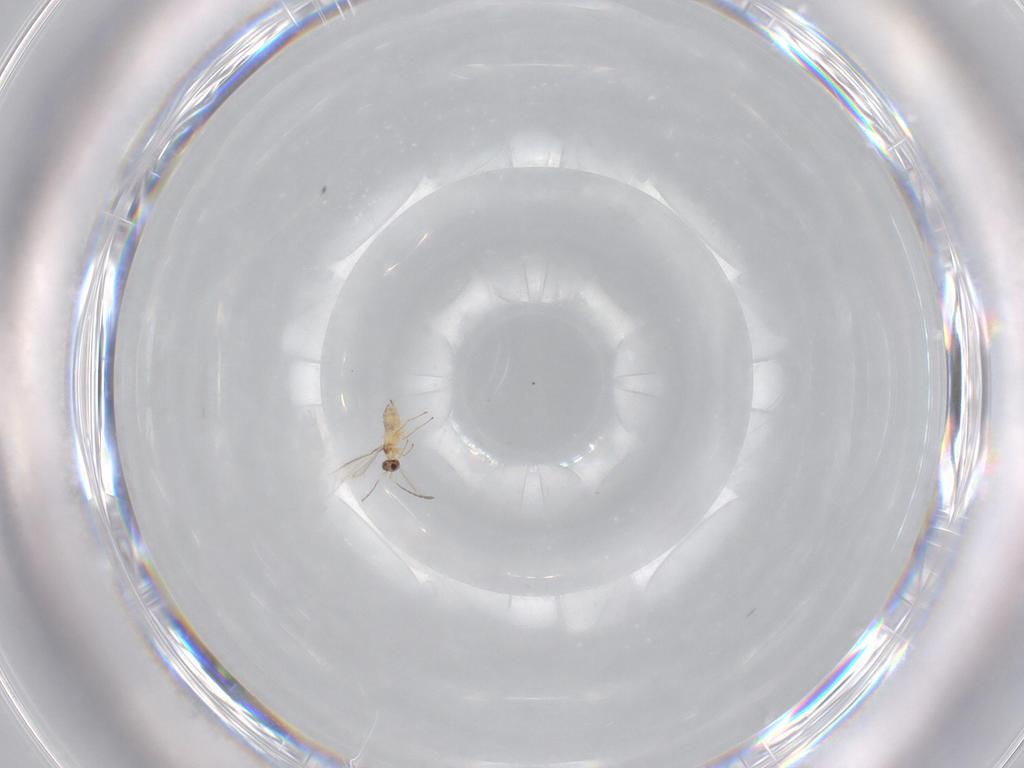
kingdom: Animalia
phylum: Arthropoda
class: Insecta
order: Hymenoptera
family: Mymaridae
